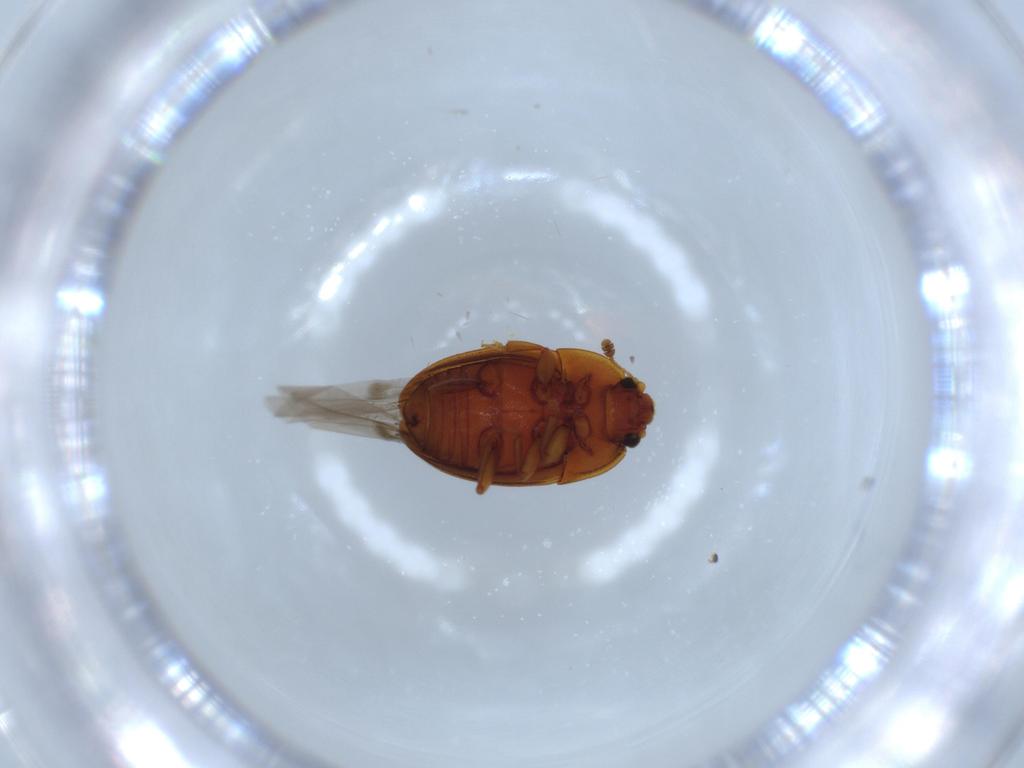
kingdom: Animalia
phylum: Arthropoda
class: Insecta
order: Coleoptera
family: Nitidulidae
